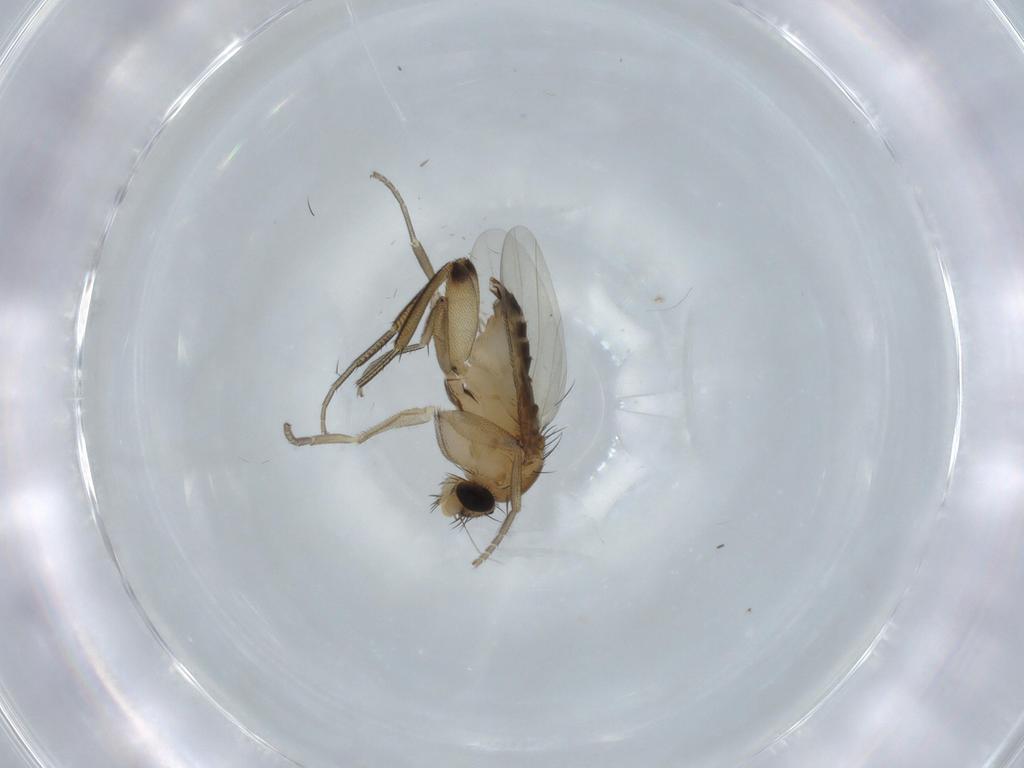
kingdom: Animalia
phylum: Arthropoda
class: Insecta
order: Diptera
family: Phoridae
